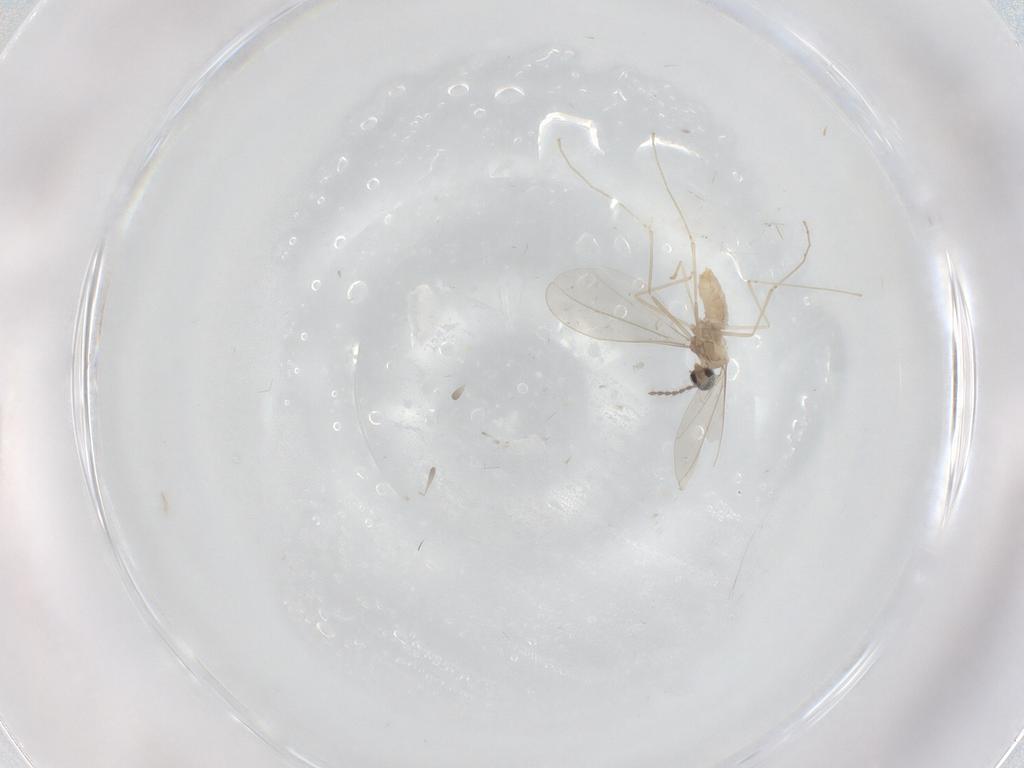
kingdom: Animalia
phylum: Arthropoda
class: Insecta
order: Diptera
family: Cecidomyiidae
